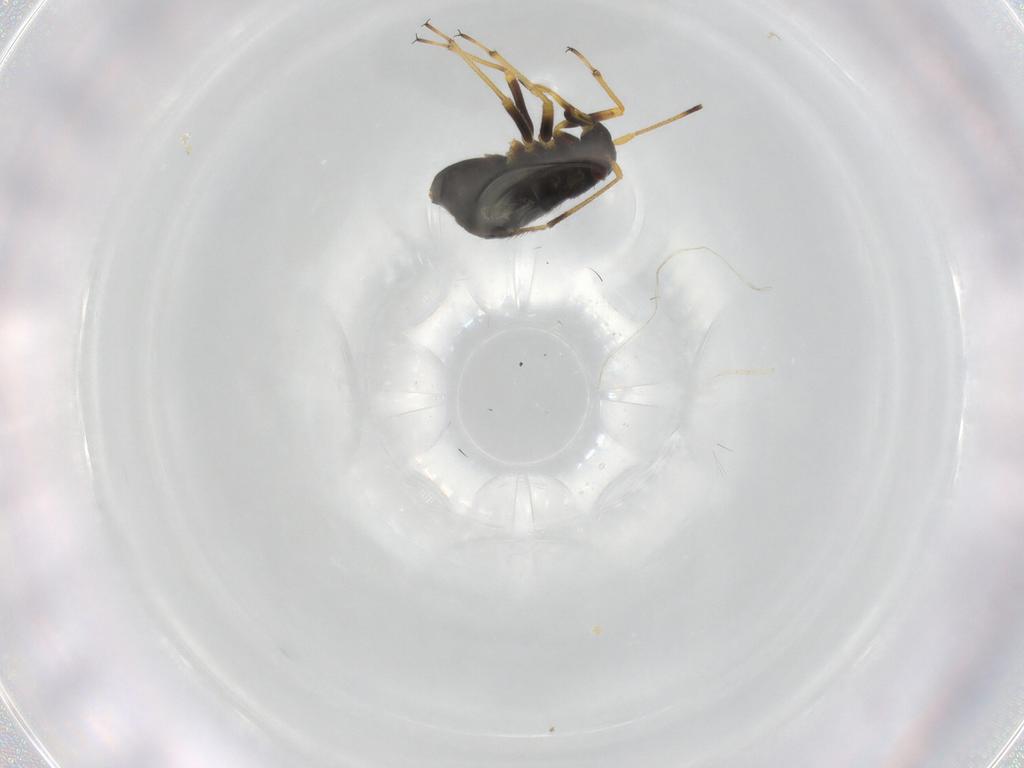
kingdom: Animalia
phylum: Arthropoda
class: Insecta
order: Hemiptera
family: Miridae
